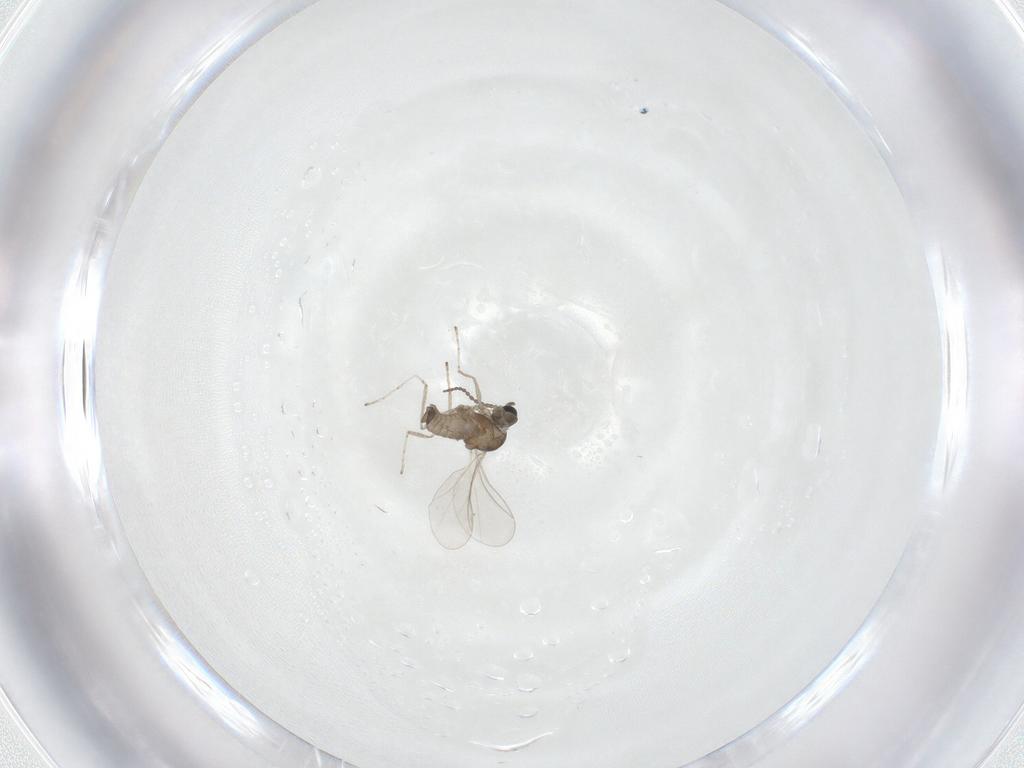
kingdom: Animalia
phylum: Arthropoda
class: Insecta
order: Diptera
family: Cecidomyiidae
